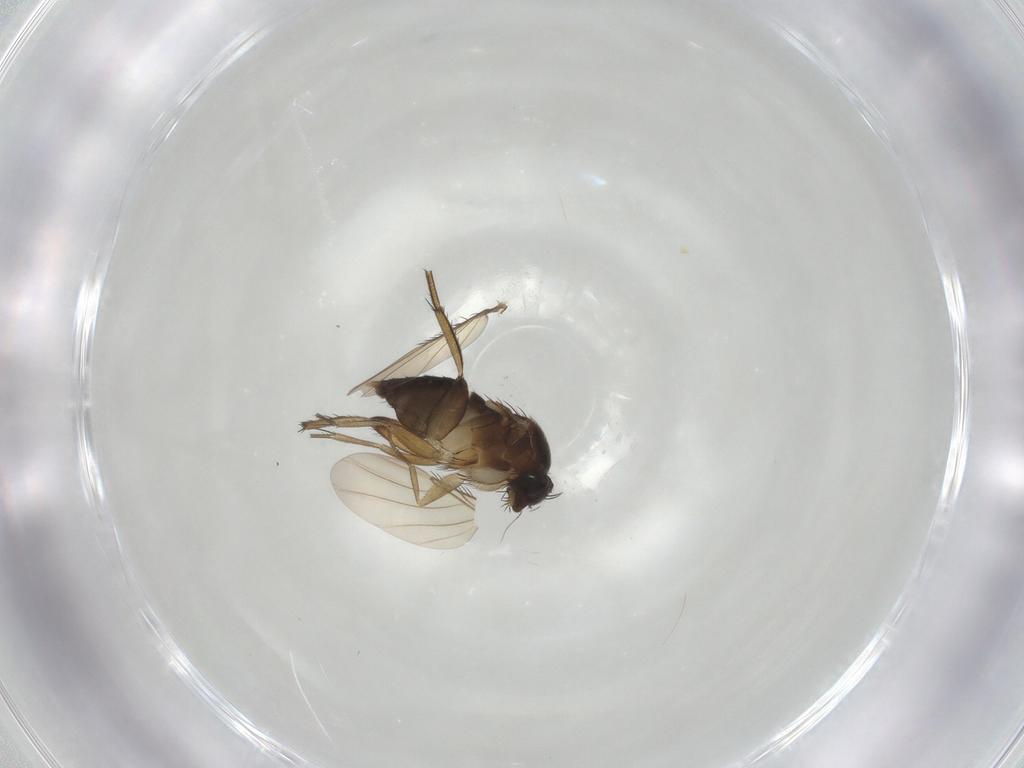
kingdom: Animalia
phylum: Arthropoda
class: Insecta
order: Diptera
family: Phoridae
